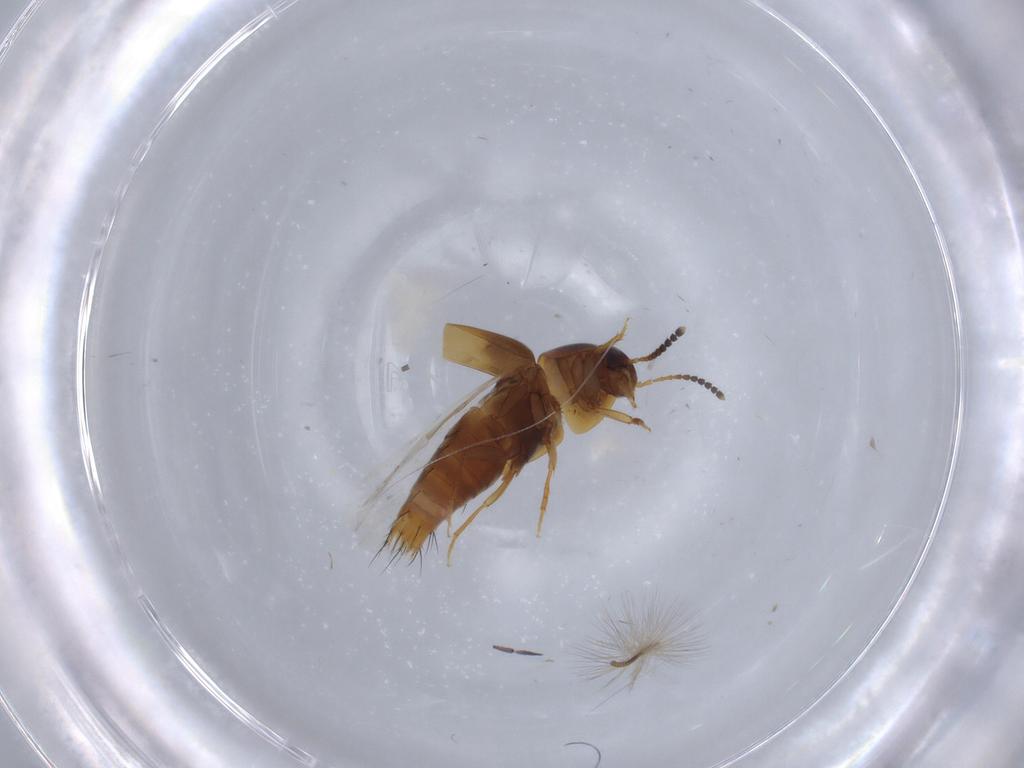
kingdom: Animalia
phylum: Arthropoda
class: Insecta
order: Coleoptera
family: Staphylinidae
